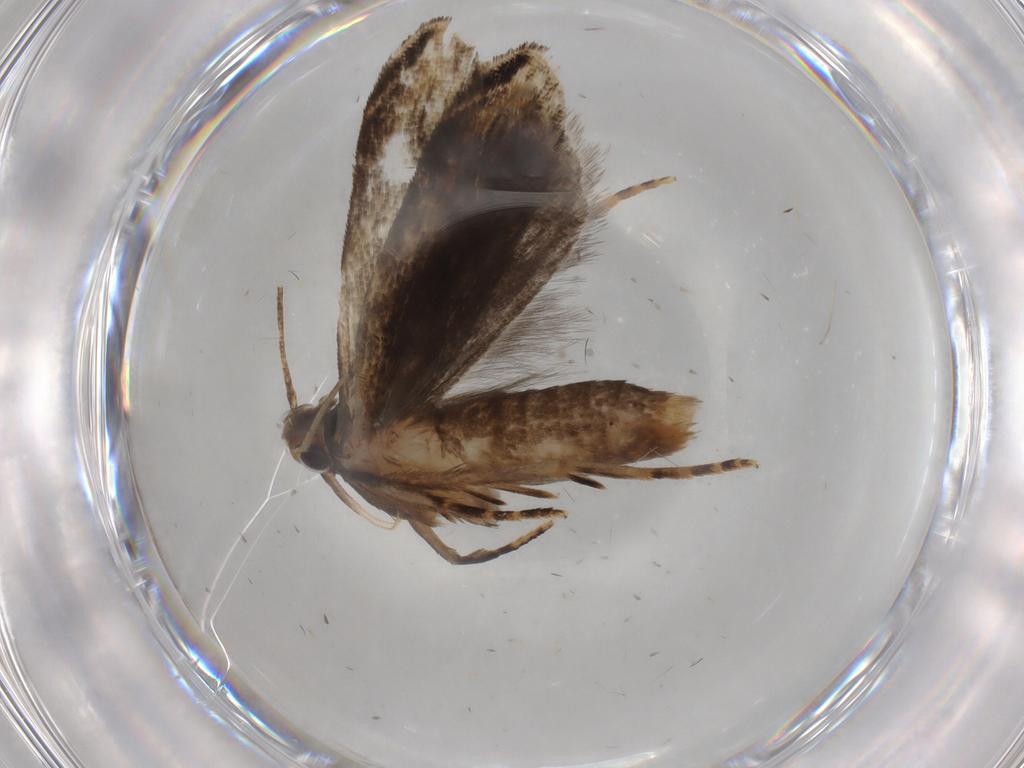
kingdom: Animalia
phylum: Arthropoda
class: Insecta
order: Lepidoptera
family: Gelechiidae
